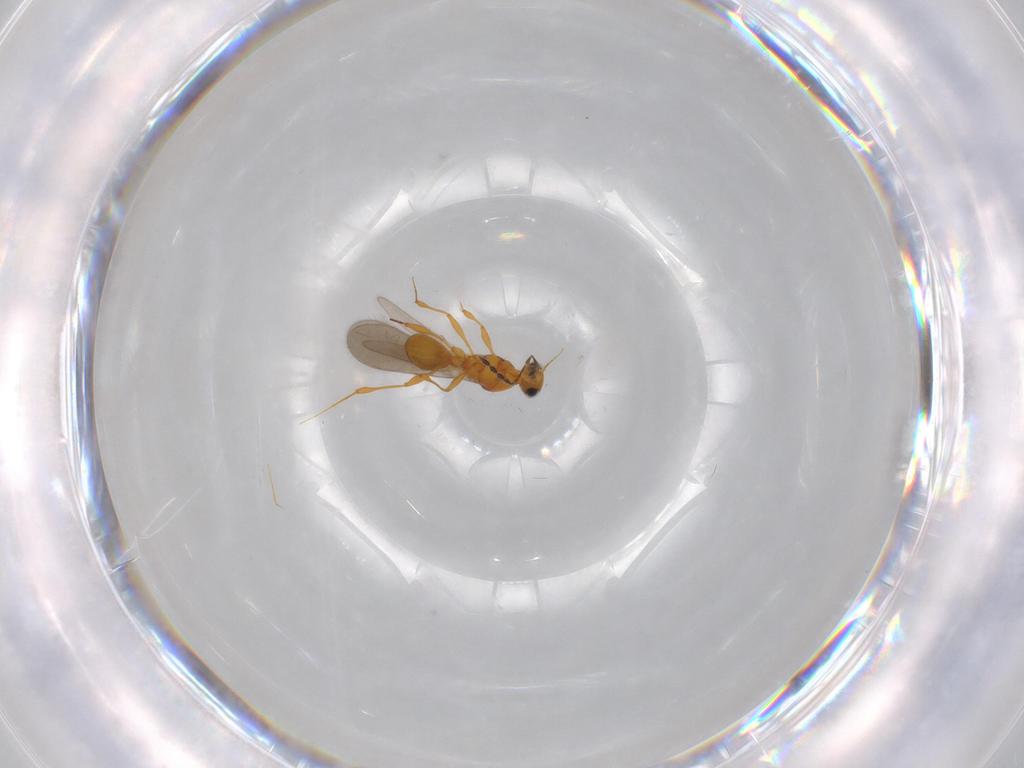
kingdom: Animalia
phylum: Arthropoda
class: Insecta
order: Hymenoptera
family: Platygastridae
